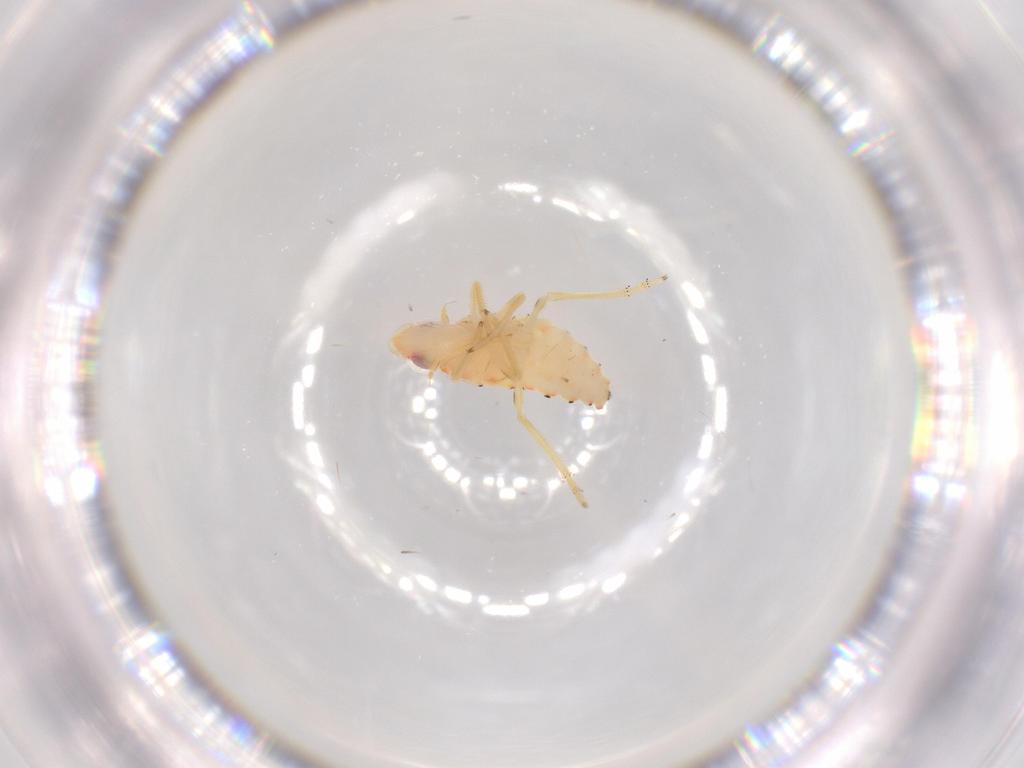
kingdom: Animalia
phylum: Arthropoda
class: Insecta
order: Hemiptera
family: Tropiduchidae
